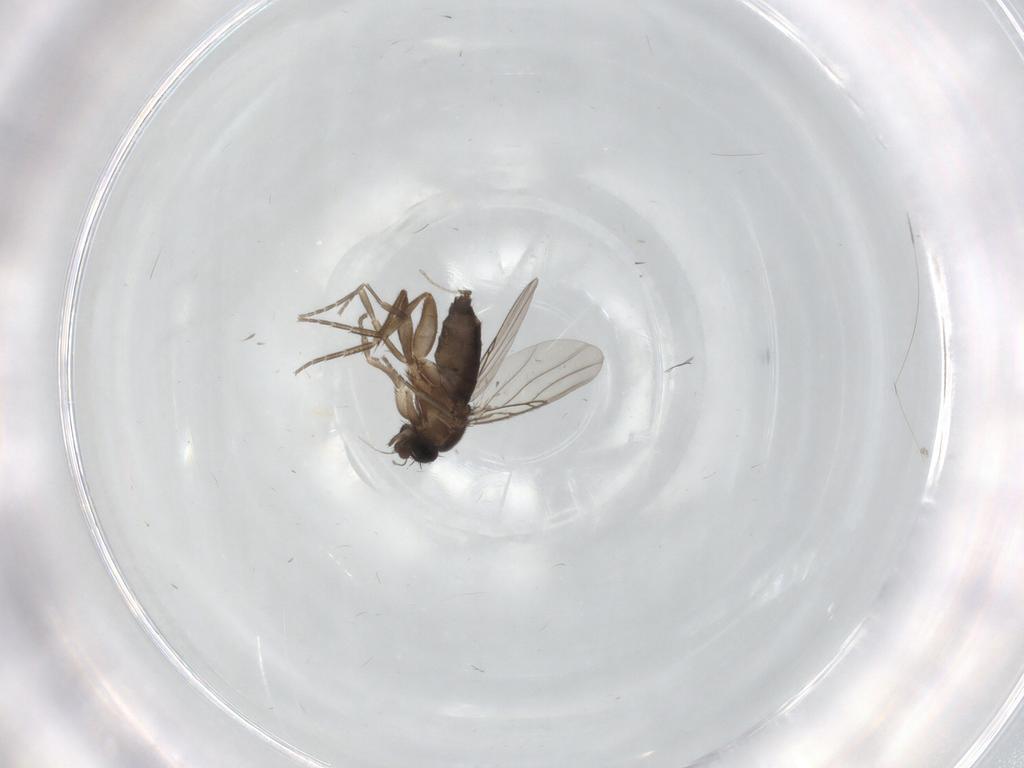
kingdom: Animalia
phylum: Arthropoda
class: Insecta
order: Diptera
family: Phoridae
